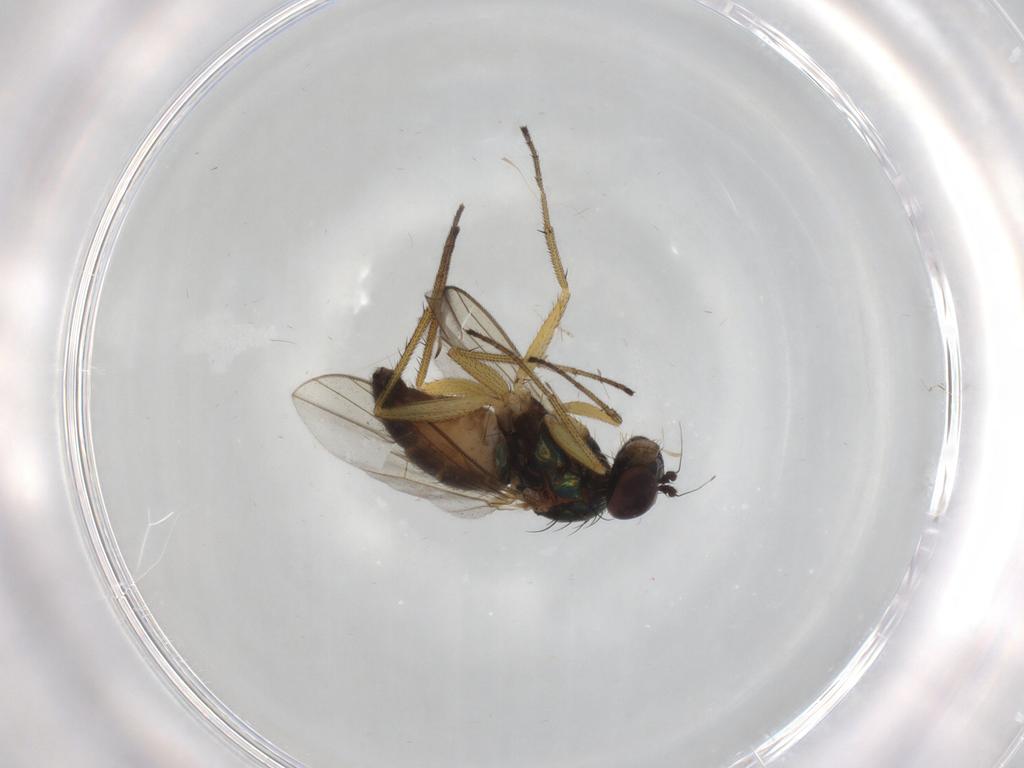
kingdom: Animalia
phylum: Arthropoda
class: Insecta
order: Diptera
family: Dolichopodidae
